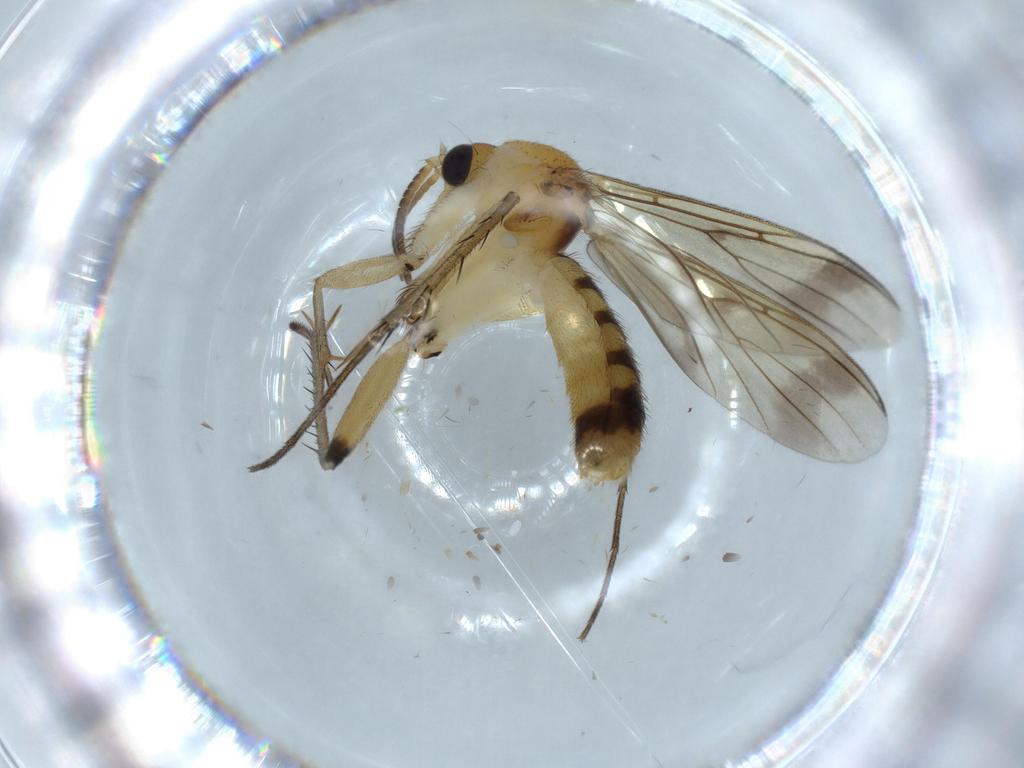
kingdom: Animalia
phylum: Arthropoda
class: Insecta
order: Diptera
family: Mycetophilidae
